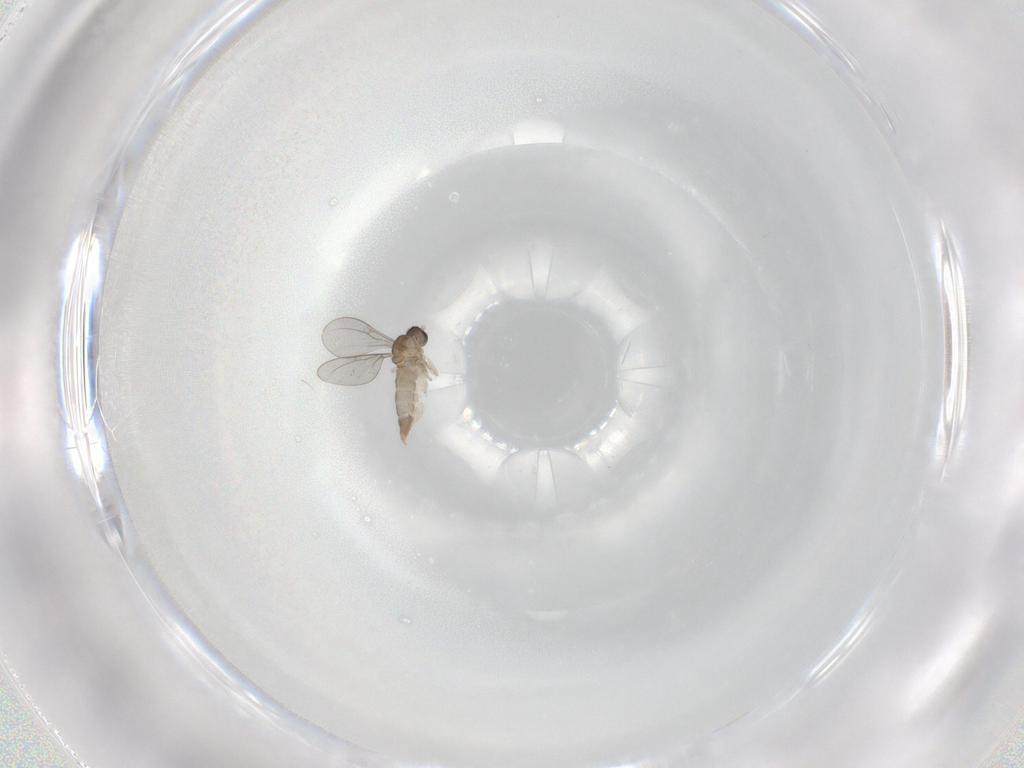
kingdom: Animalia
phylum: Arthropoda
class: Insecta
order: Diptera
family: Cecidomyiidae
